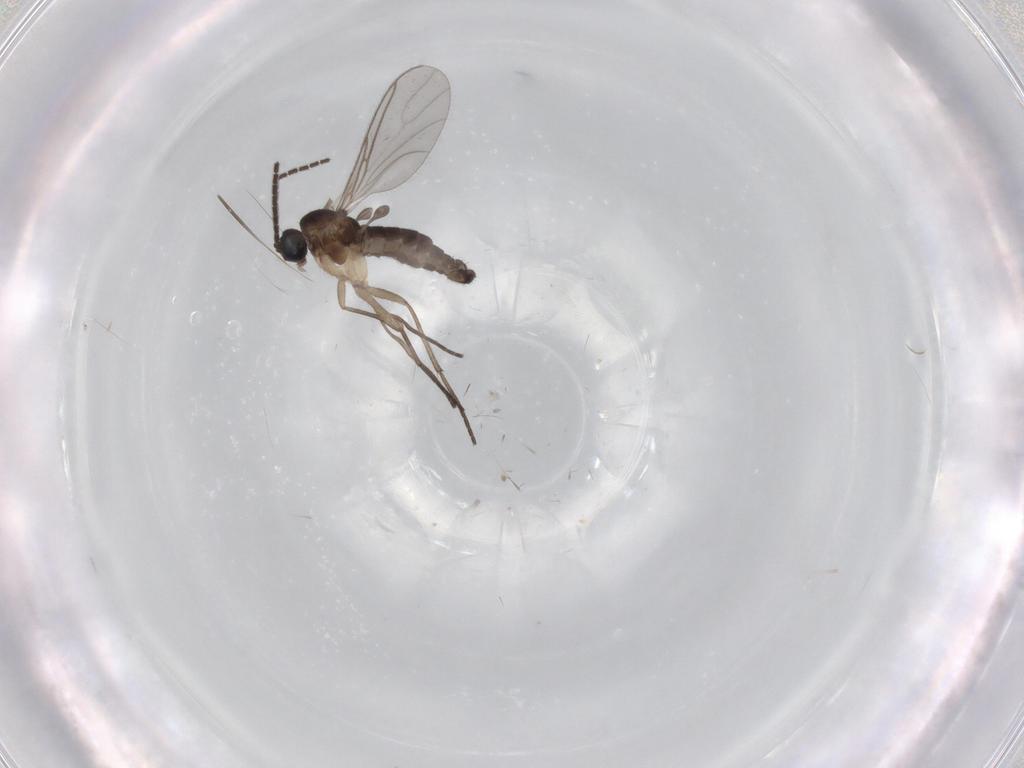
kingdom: Animalia
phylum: Arthropoda
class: Insecta
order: Diptera
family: Sciaridae
